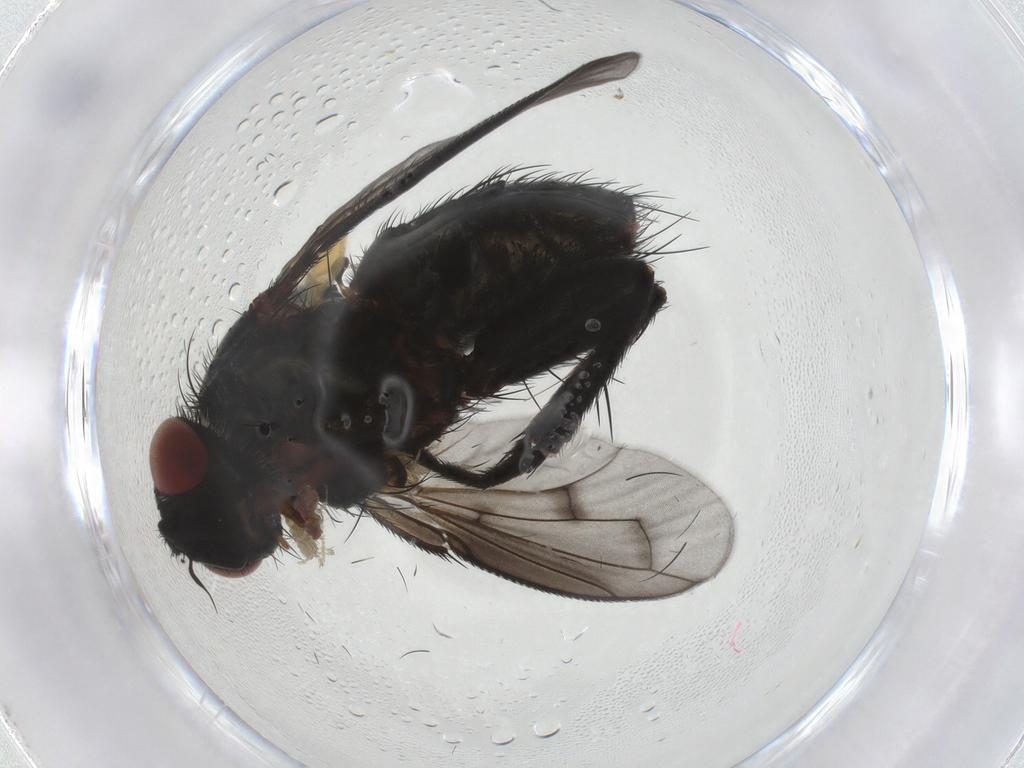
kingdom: Animalia
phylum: Arthropoda
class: Insecta
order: Diptera
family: Tachinidae
